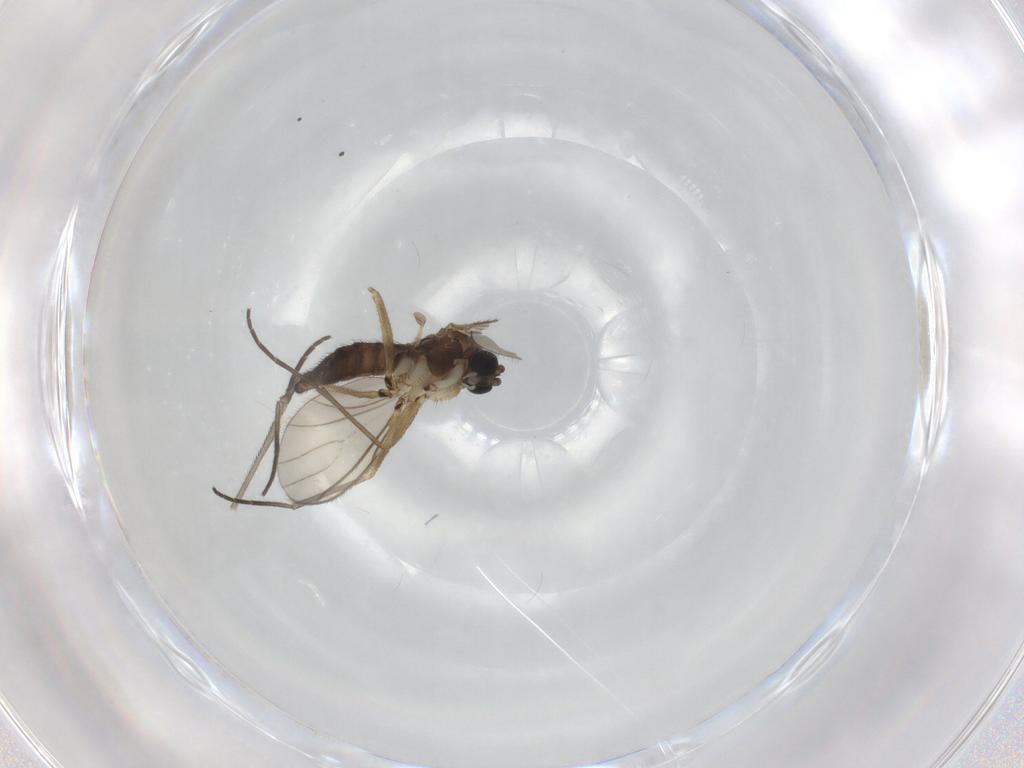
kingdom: Animalia
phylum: Arthropoda
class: Insecta
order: Diptera
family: Sciaridae
